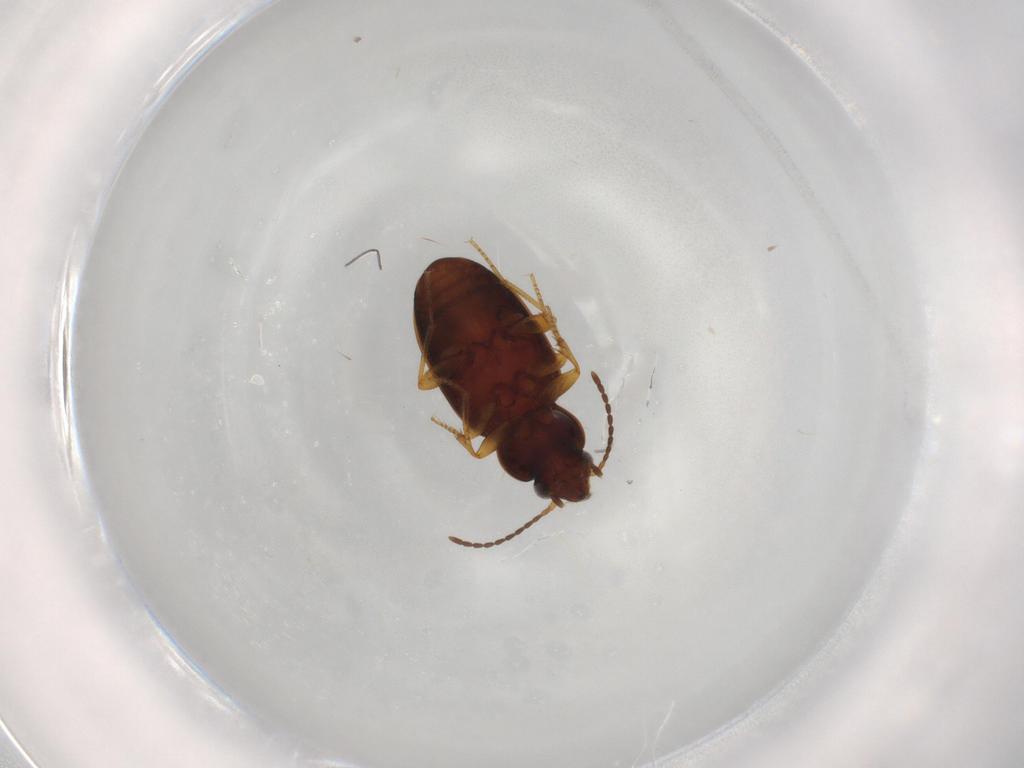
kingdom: Animalia
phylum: Arthropoda
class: Insecta
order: Coleoptera
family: Carabidae
